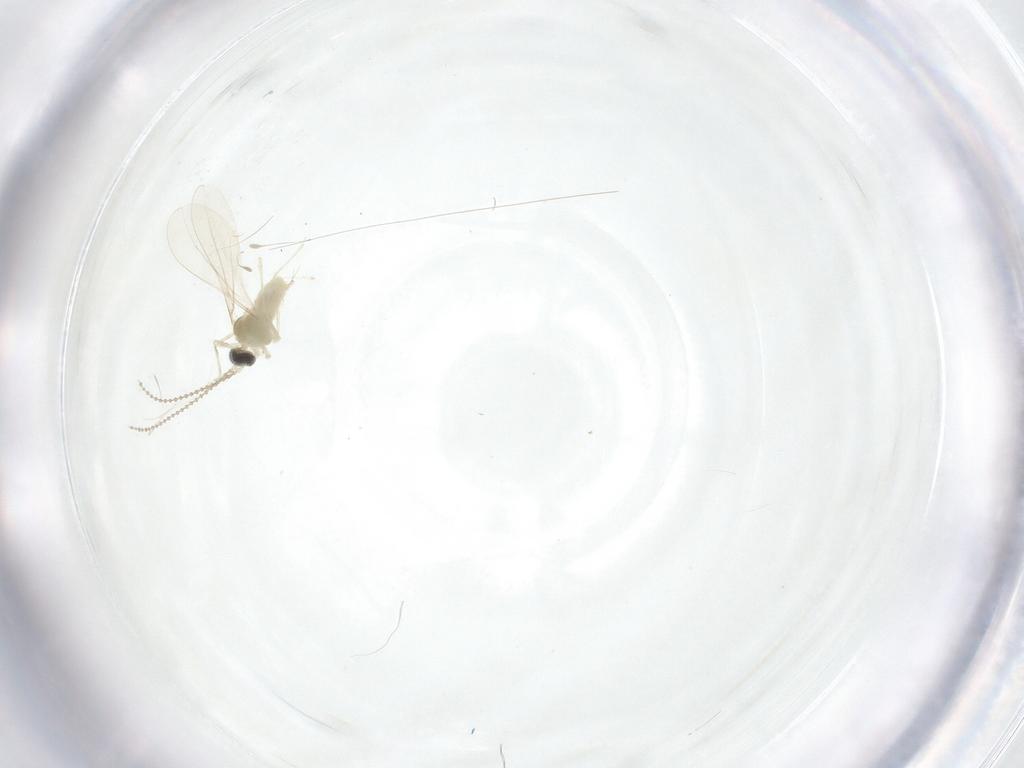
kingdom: Animalia
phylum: Arthropoda
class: Insecta
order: Diptera
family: Cecidomyiidae
